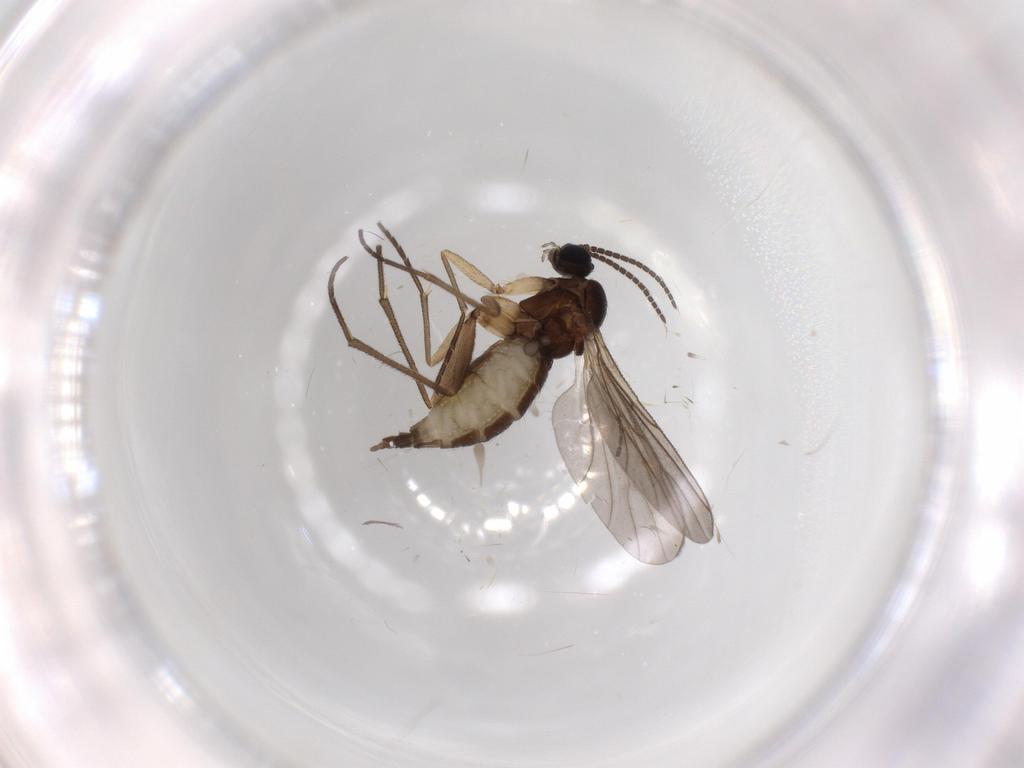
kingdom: Animalia
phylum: Arthropoda
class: Insecta
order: Diptera
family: Sciaridae
